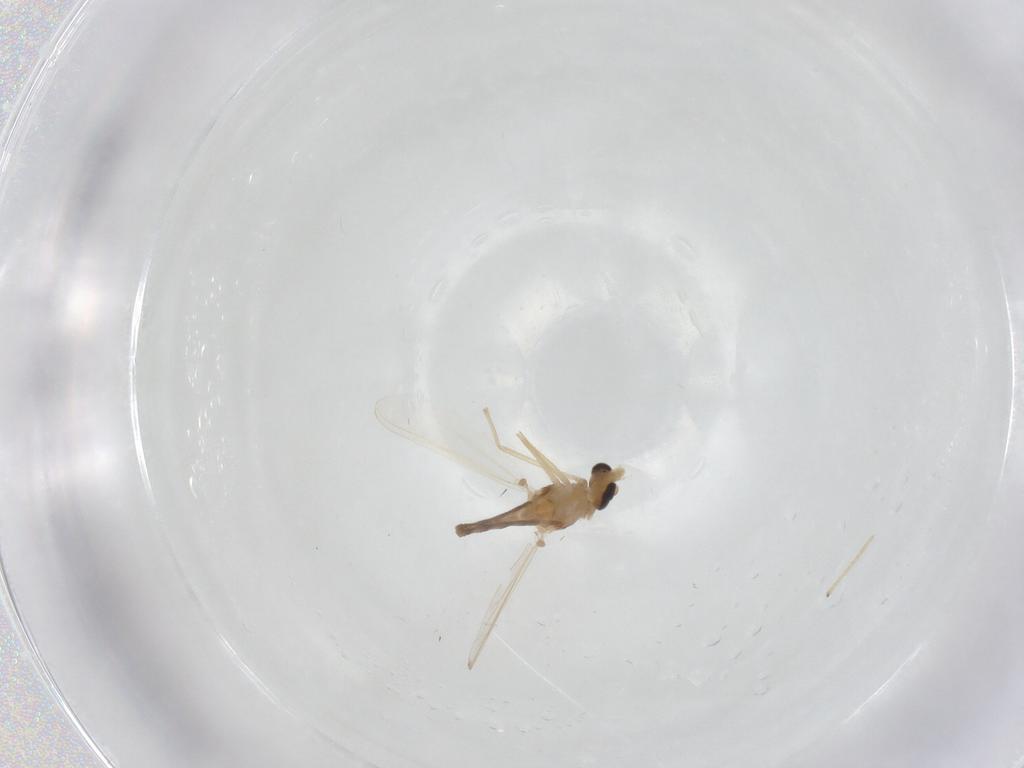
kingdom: Animalia
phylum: Arthropoda
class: Insecta
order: Diptera
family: Chironomidae
